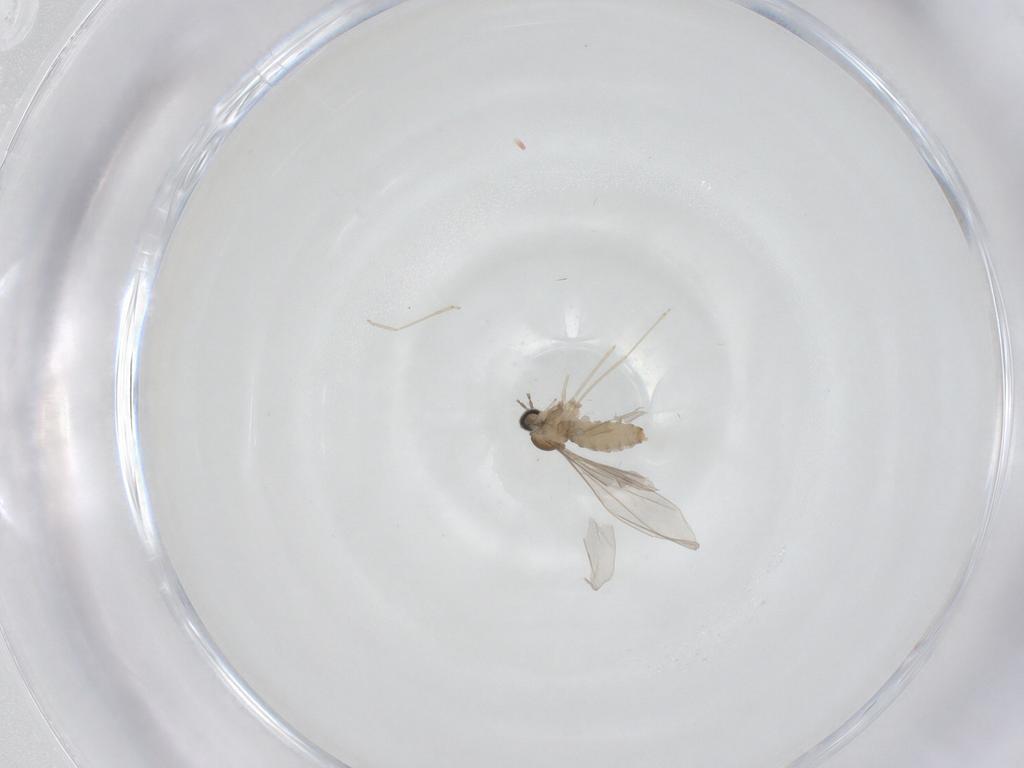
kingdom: Animalia
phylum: Arthropoda
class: Insecta
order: Diptera
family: Cecidomyiidae
